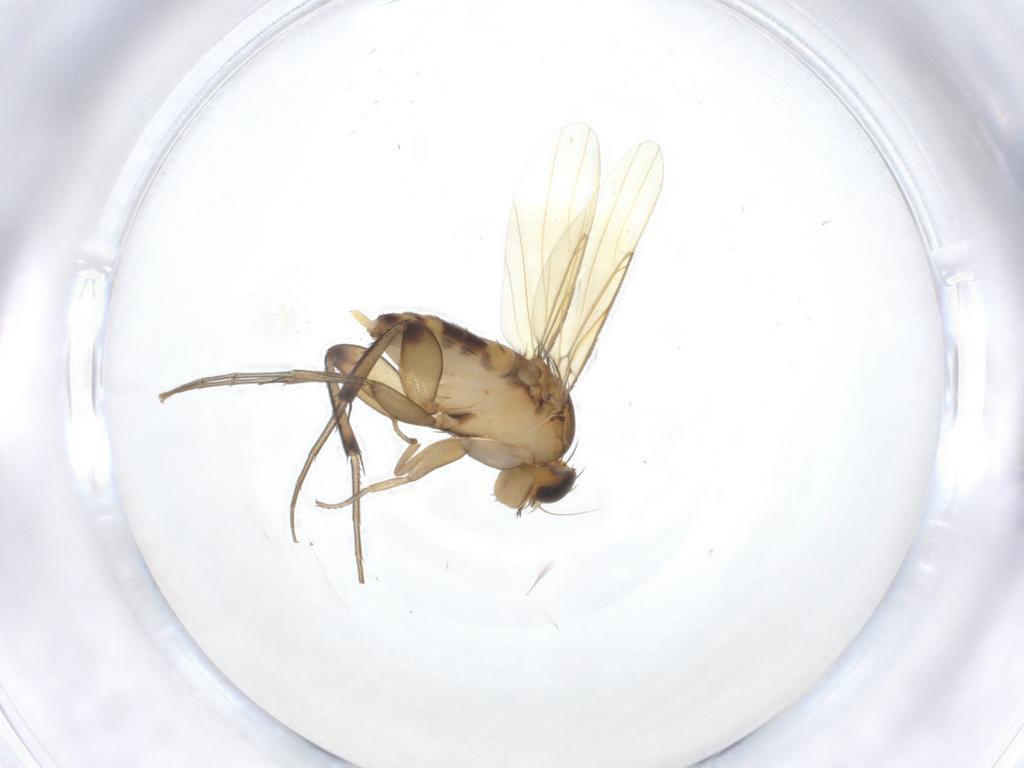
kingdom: Animalia
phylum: Arthropoda
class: Insecta
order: Diptera
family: Phoridae
